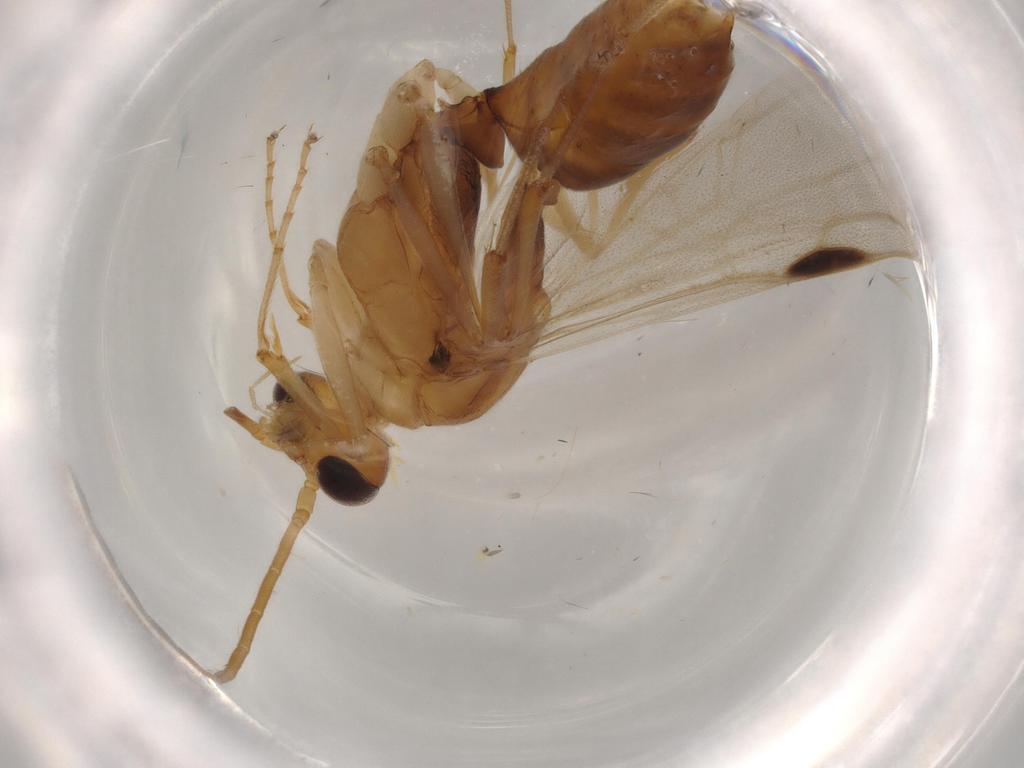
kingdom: Animalia
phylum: Arthropoda
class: Insecta
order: Hymenoptera
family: Formicidae
